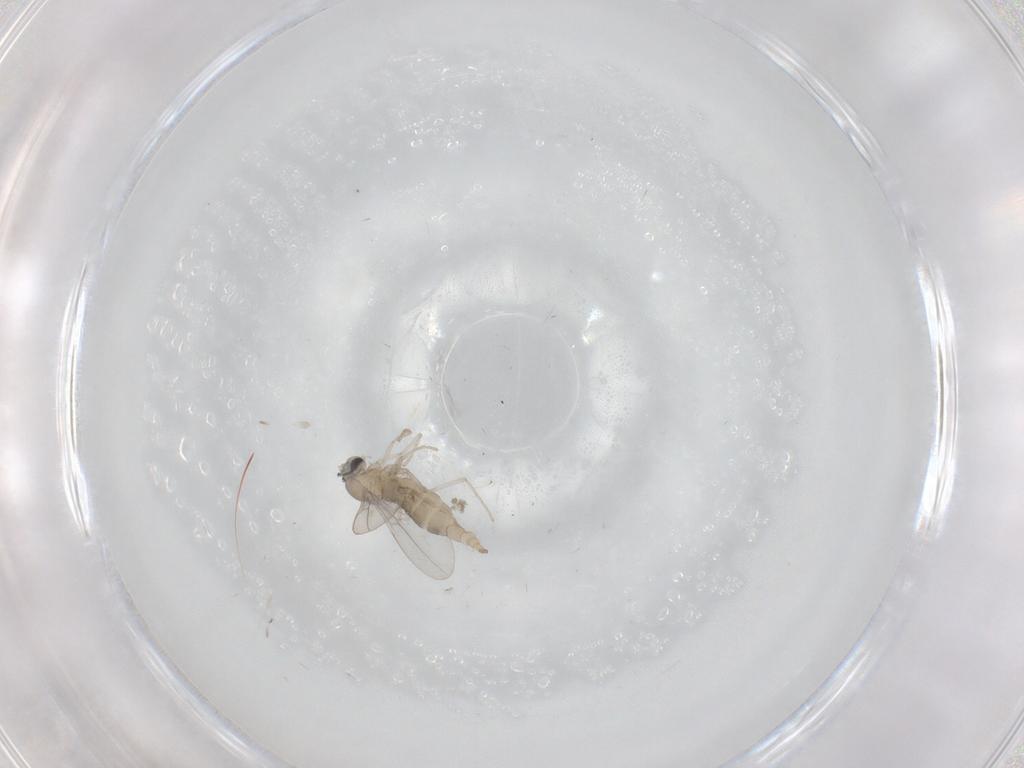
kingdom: Animalia
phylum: Arthropoda
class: Insecta
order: Diptera
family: Cecidomyiidae
